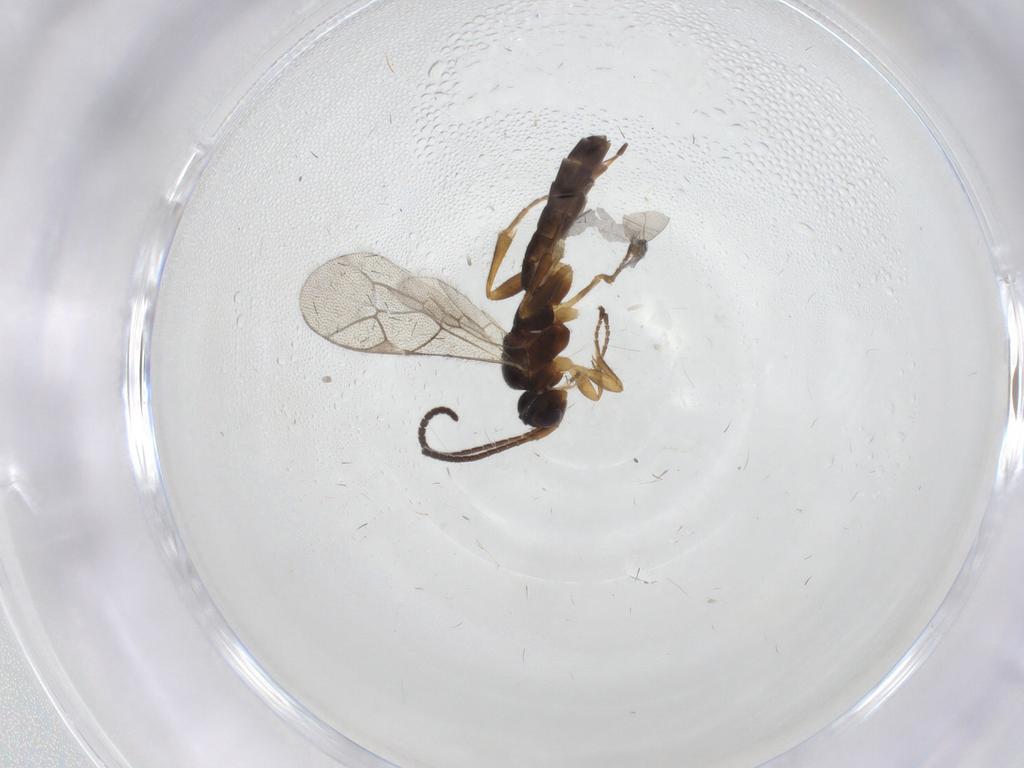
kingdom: Animalia
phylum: Arthropoda
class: Insecta
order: Hymenoptera
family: Ichneumonidae
